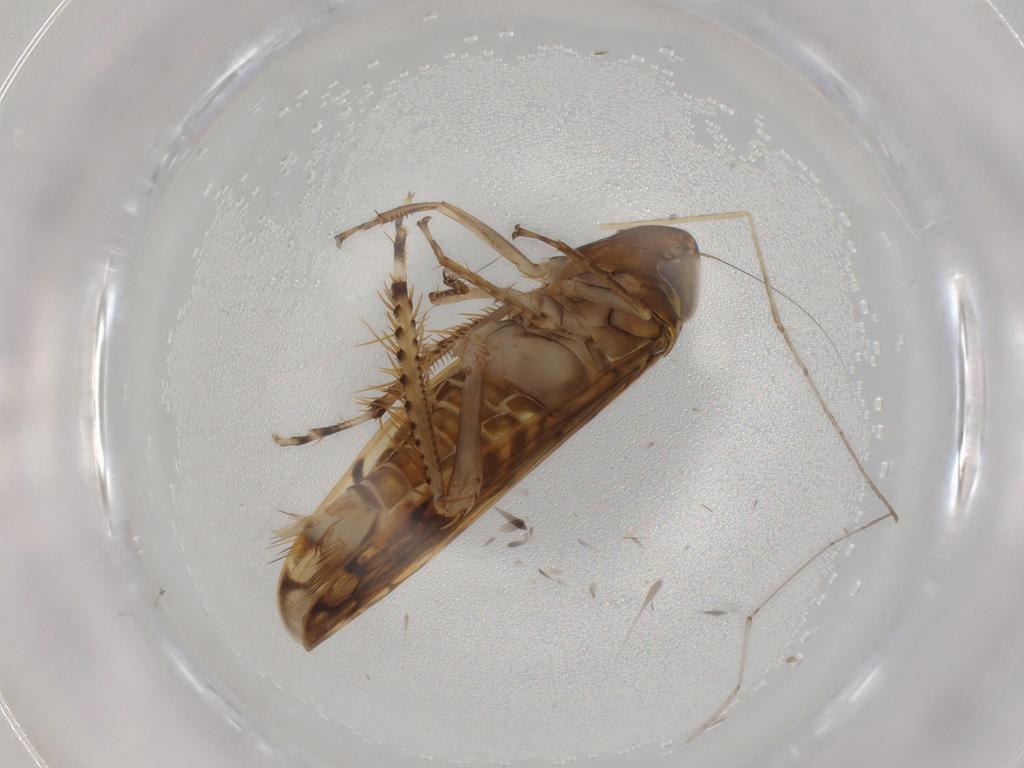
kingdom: Animalia
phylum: Arthropoda
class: Insecta
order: Hemiptera
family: Cicadellidae
